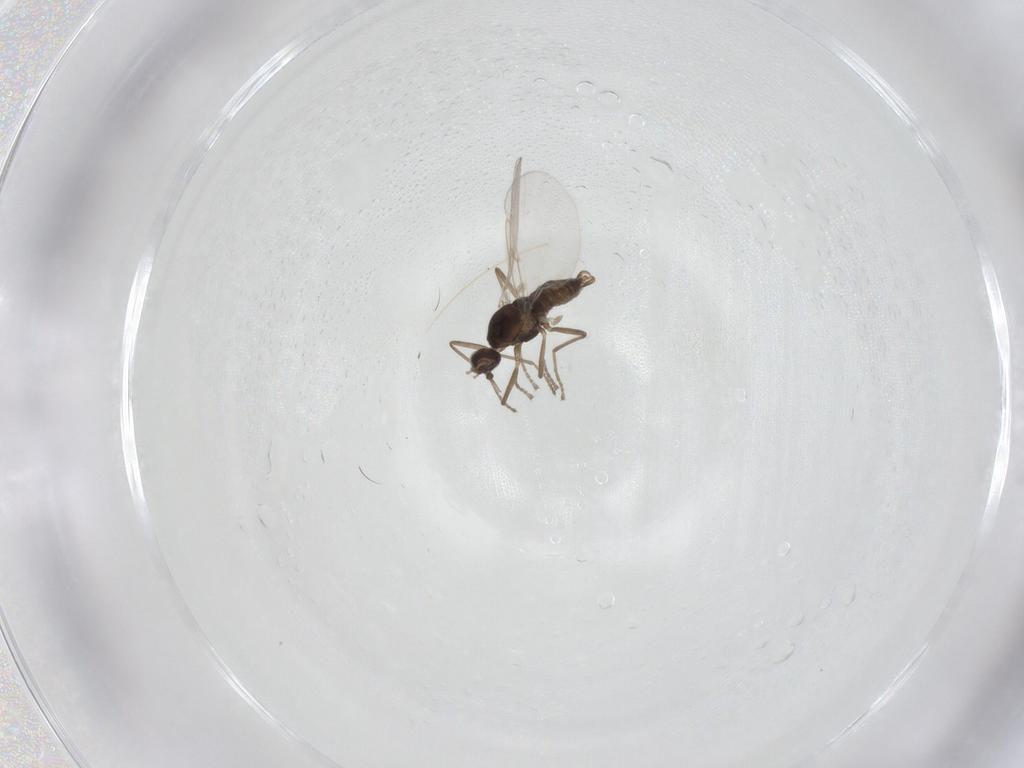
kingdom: Animalia
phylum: Arthropoda
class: Insecta
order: Diptera
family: Cecidomyiidae
